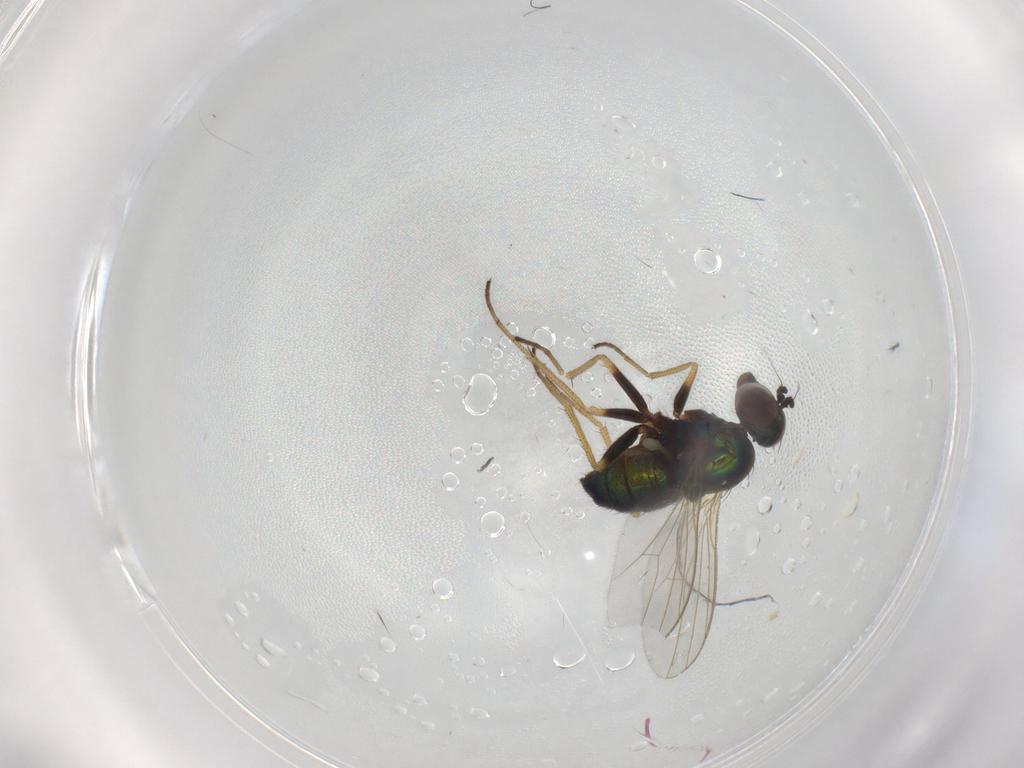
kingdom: Animalia
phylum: Arthropoda
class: Insecta
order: Diptera
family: Dolichopodidae
